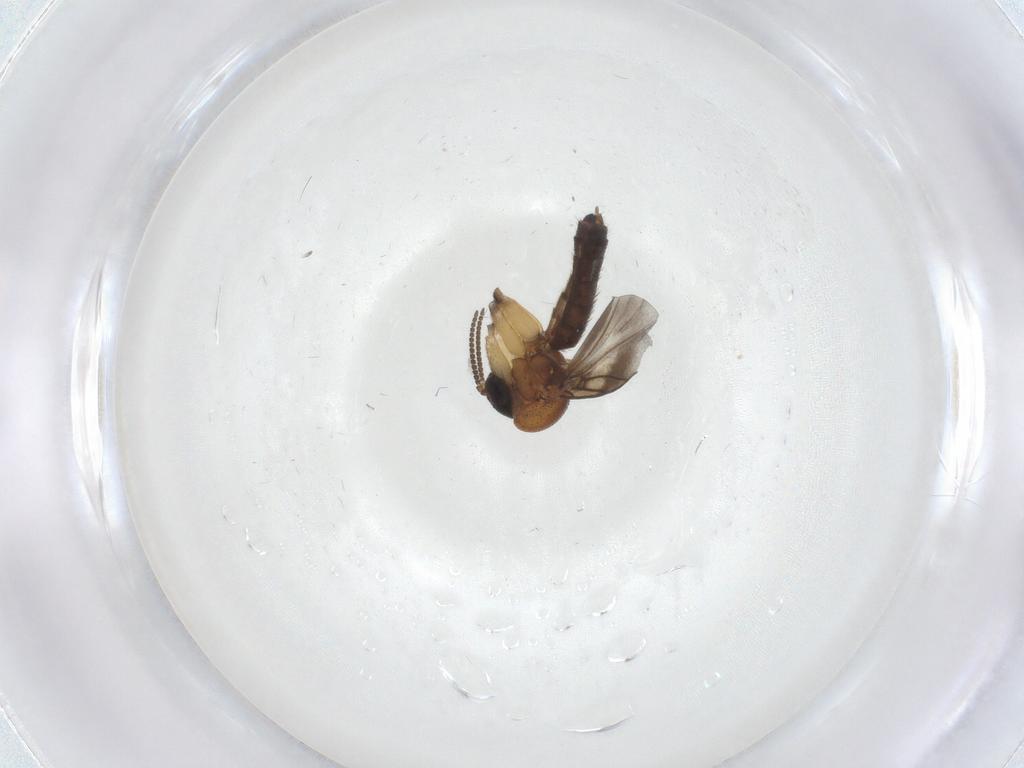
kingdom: Animalia
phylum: Arthropoda
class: Insecta
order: Diptera
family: Mycetophilidae
